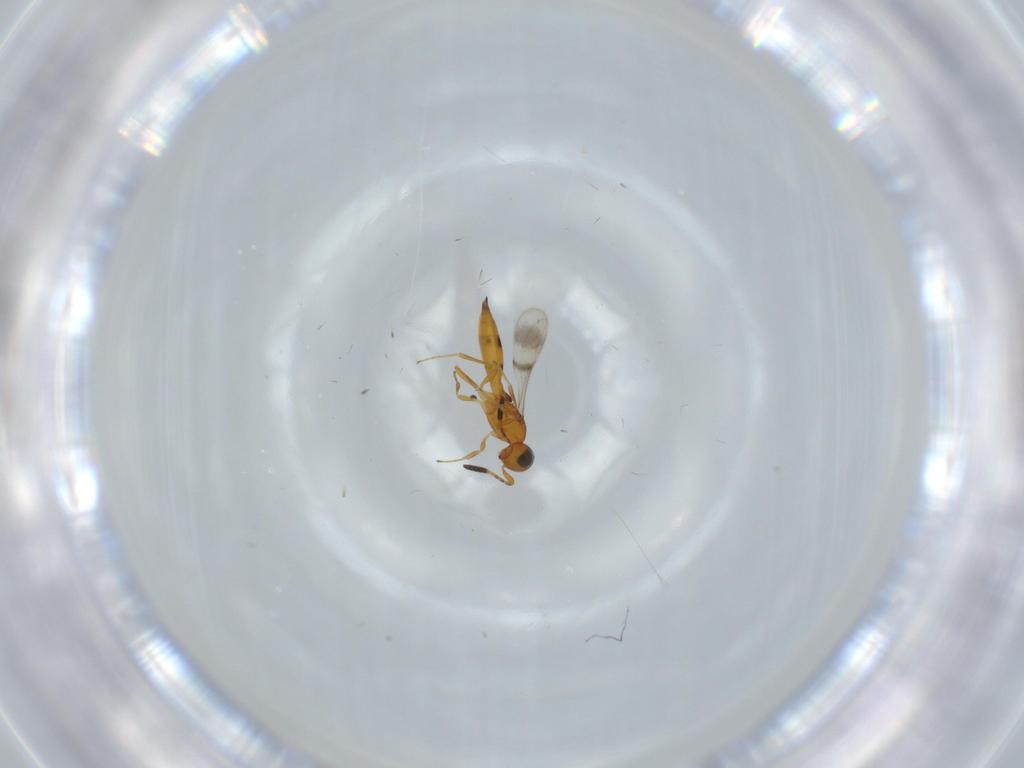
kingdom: Animalia
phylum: Arthropoda
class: Insecta
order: Hymenoptera
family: Scelionidae
